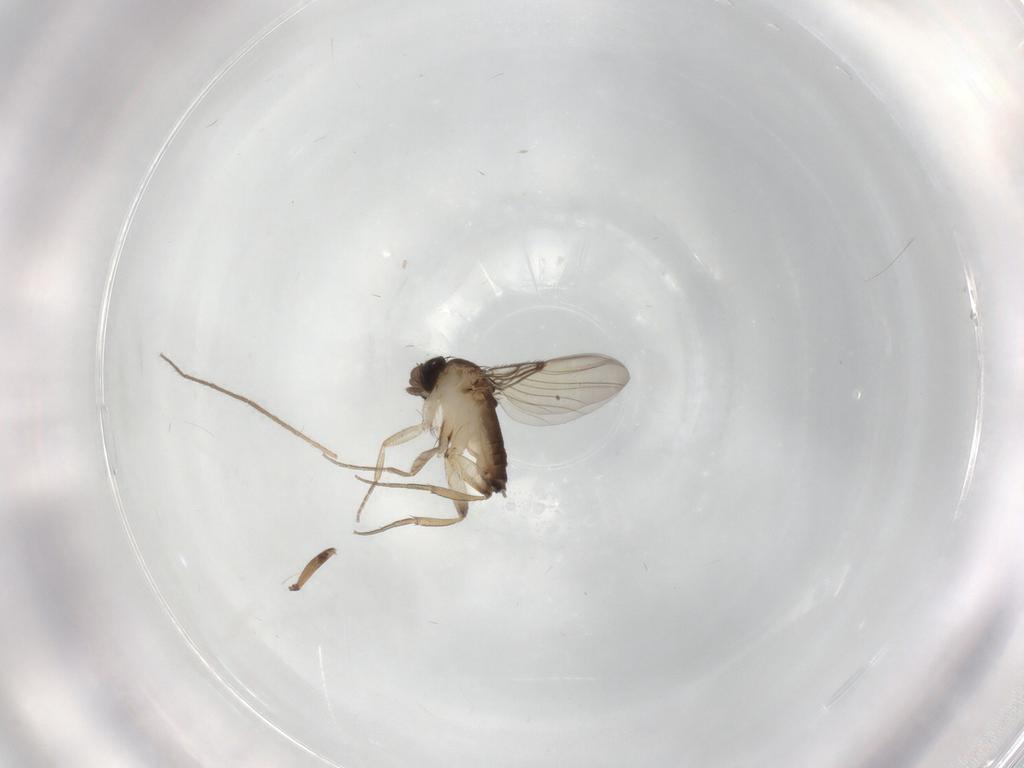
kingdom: Animalia
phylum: Arthropoda
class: Insecta
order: Diptera
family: Phoridae
